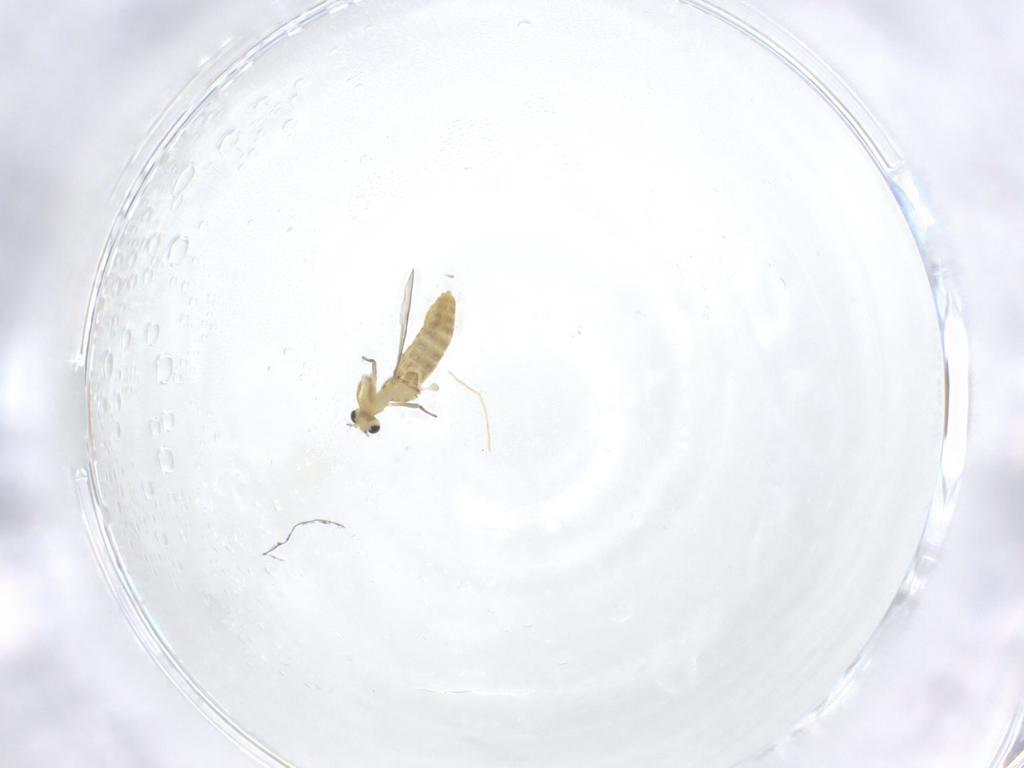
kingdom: Animalia
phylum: Arthropoda
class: Insecta
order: Diptera
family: Chironomidae
